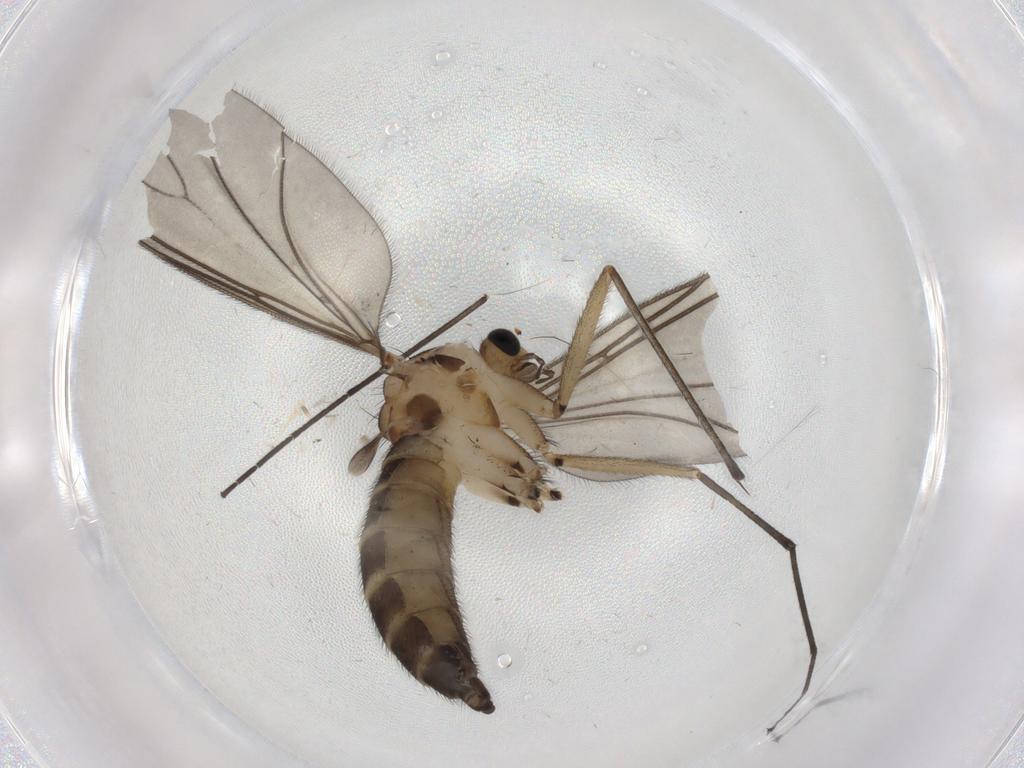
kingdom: Animalia
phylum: Arthropoda
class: Insecta
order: Diptera
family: Sciaridae
